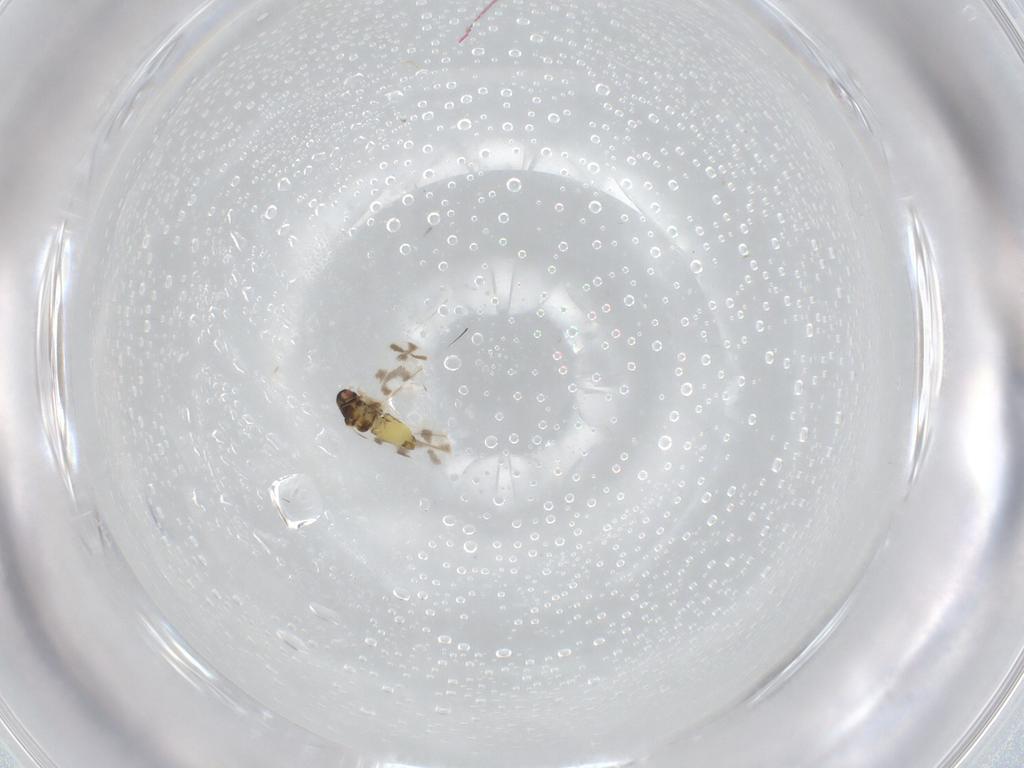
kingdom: Animalia
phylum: Arthropoda
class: Insecta
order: Hemiptera
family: Aleyrodidae
